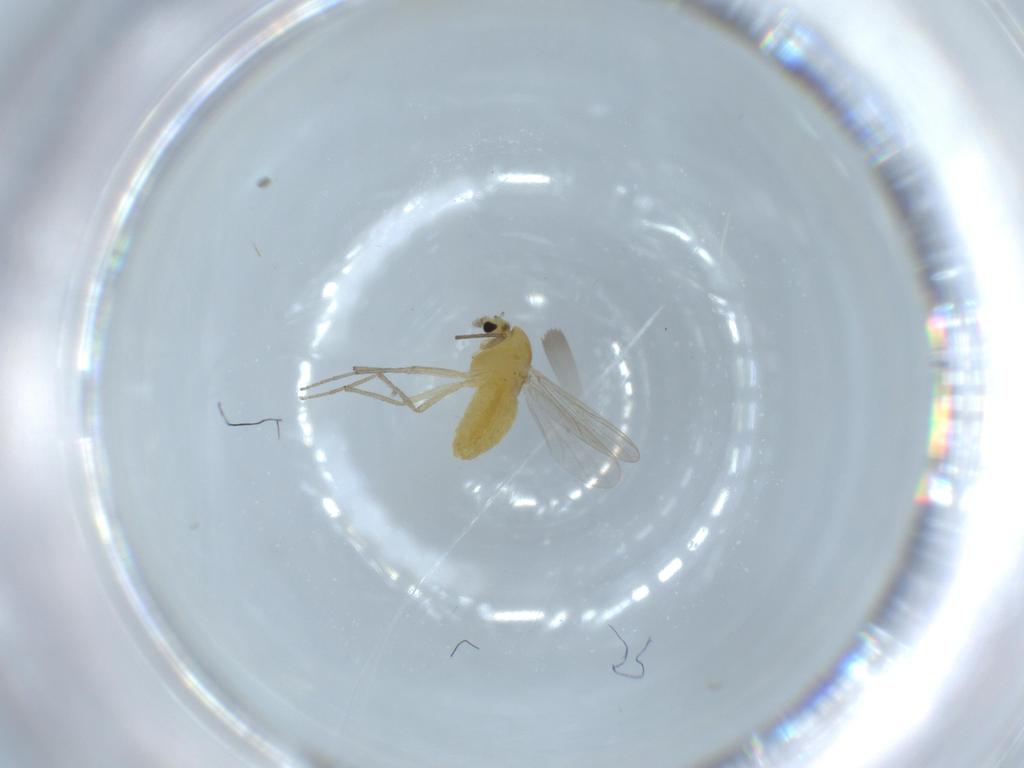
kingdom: Animalia
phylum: Arthropoda
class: Insecta
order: Diptera
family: Chironomidae
